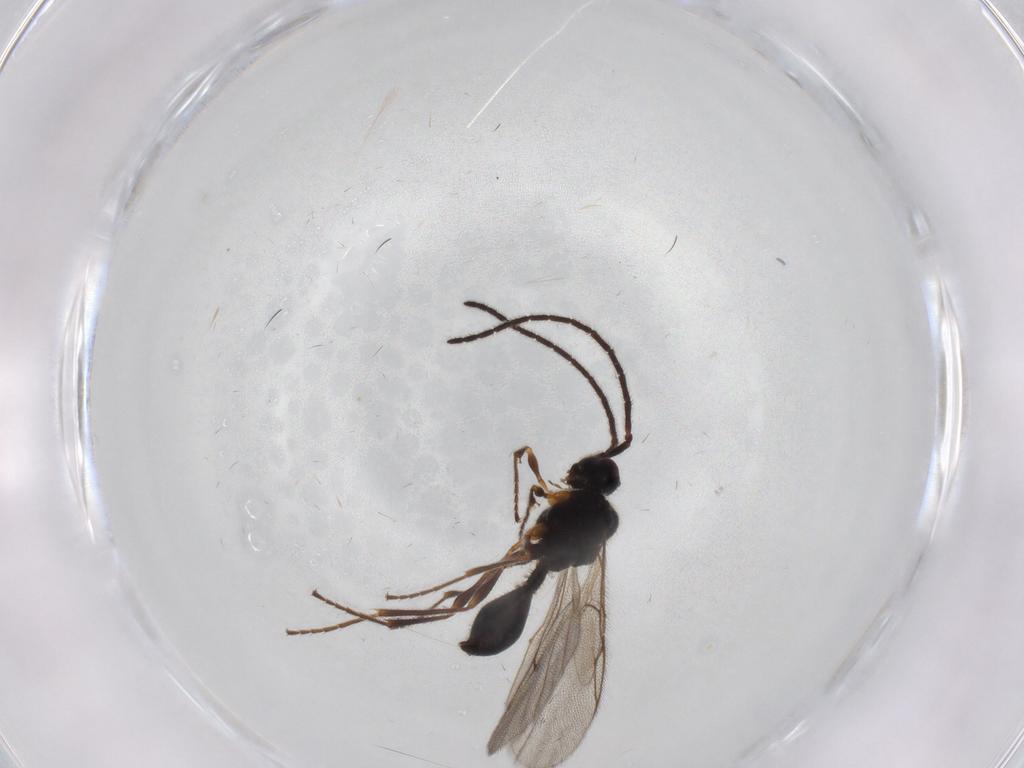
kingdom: Animalia
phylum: Arthropoda
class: Insecta
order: Hymenoptera
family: Diapriidae
